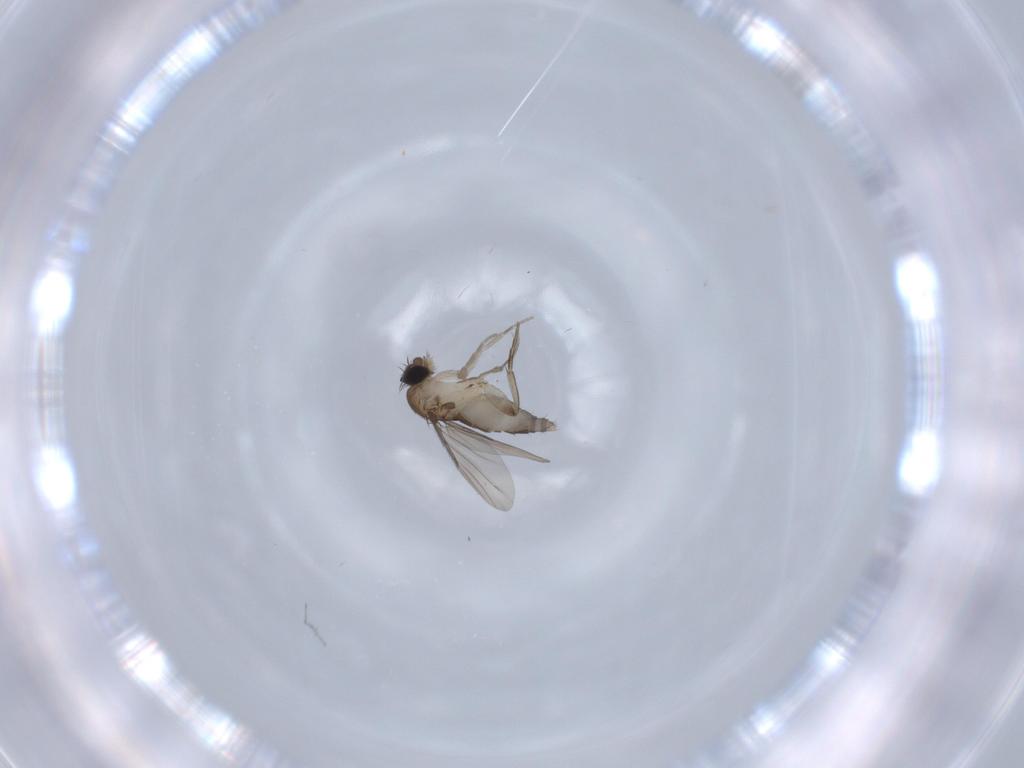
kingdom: Animalia
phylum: Arthropoda
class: Insecta
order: Diptera
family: Phoridae
